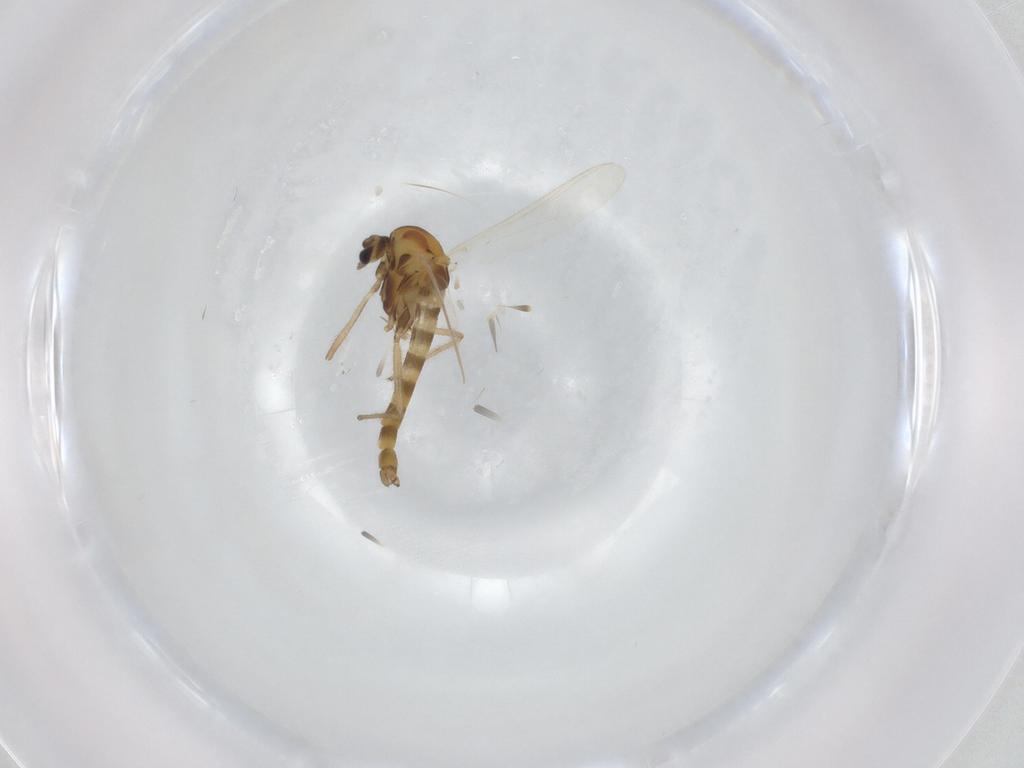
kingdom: Animalia
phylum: Arthropoda
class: Insecta
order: Diptera
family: Chironomidae
